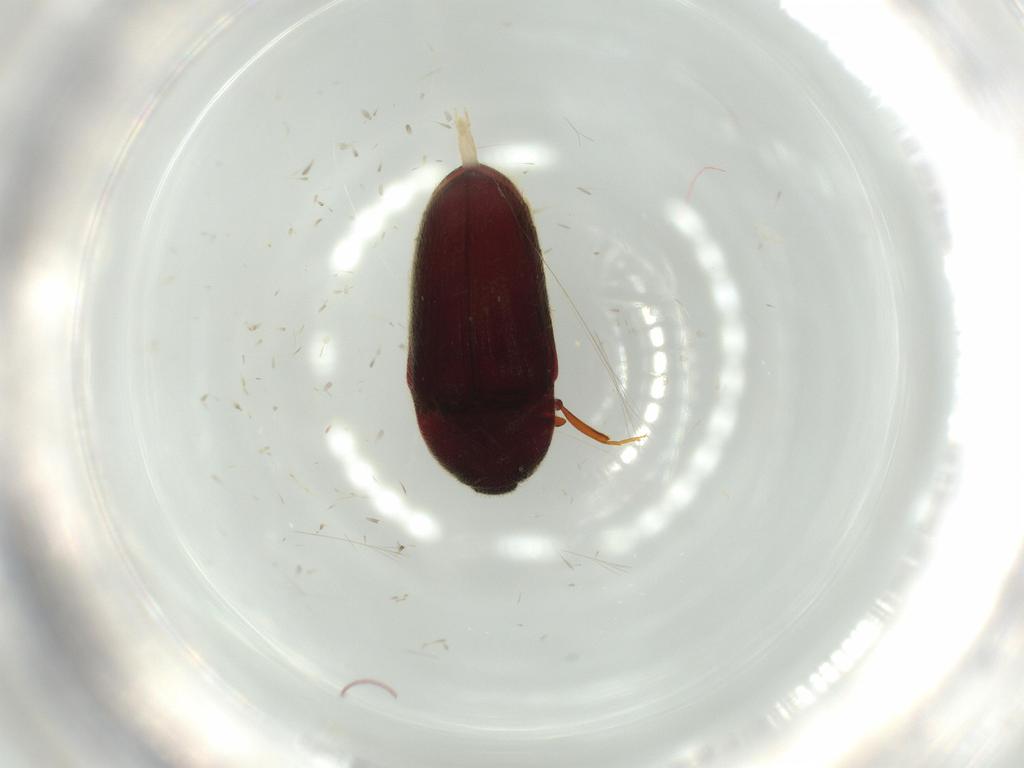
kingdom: Animalia
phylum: Arthropoda
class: Insecta
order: Coleoptera
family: Throscidae
